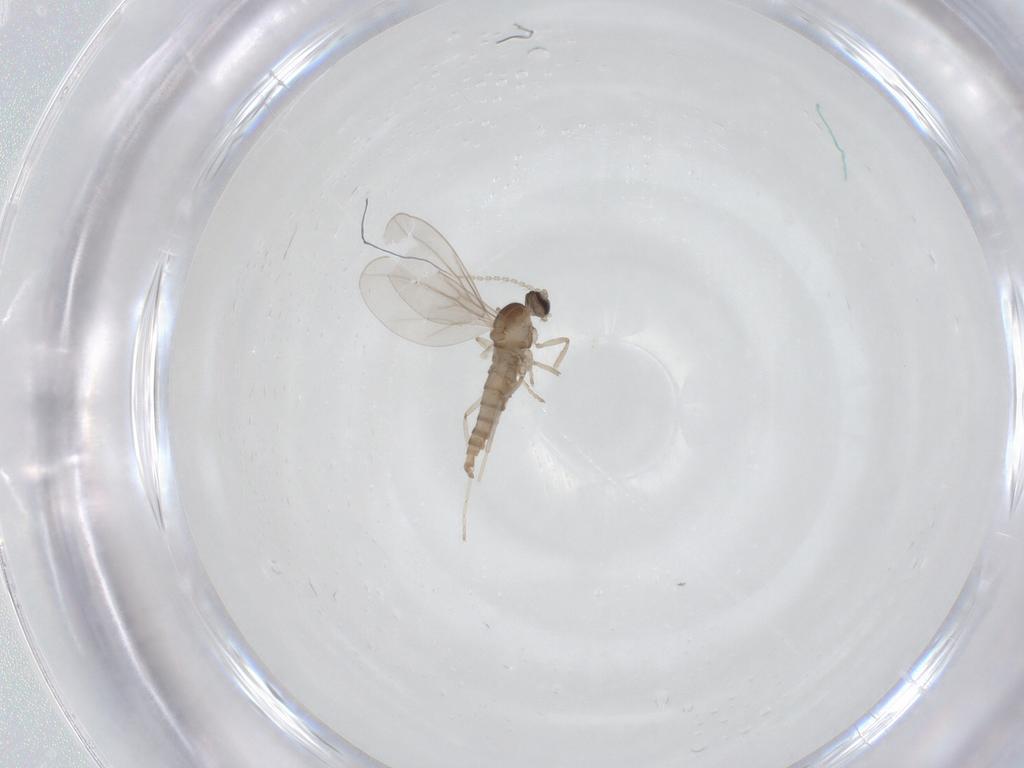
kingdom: Animalia
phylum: Arthropoda
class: Insecta
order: Diptera
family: Cecidomyiidae
